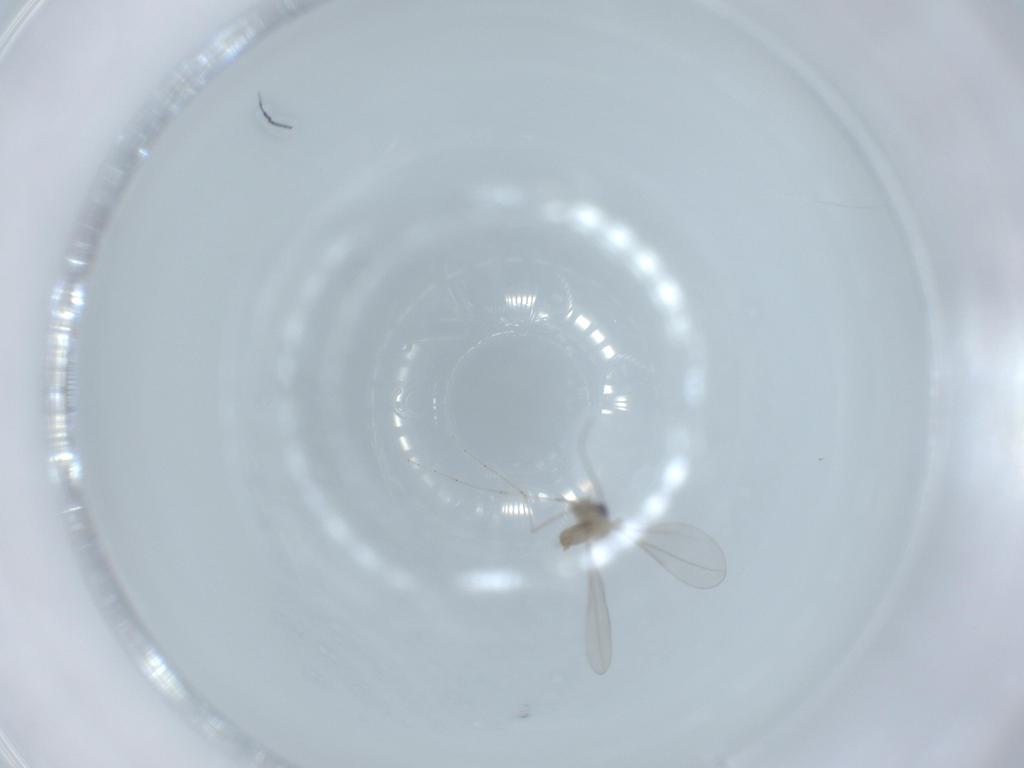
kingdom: Animalia
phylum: Arthropoda
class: Insecta
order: Diptera
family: Cecidomyiidae
